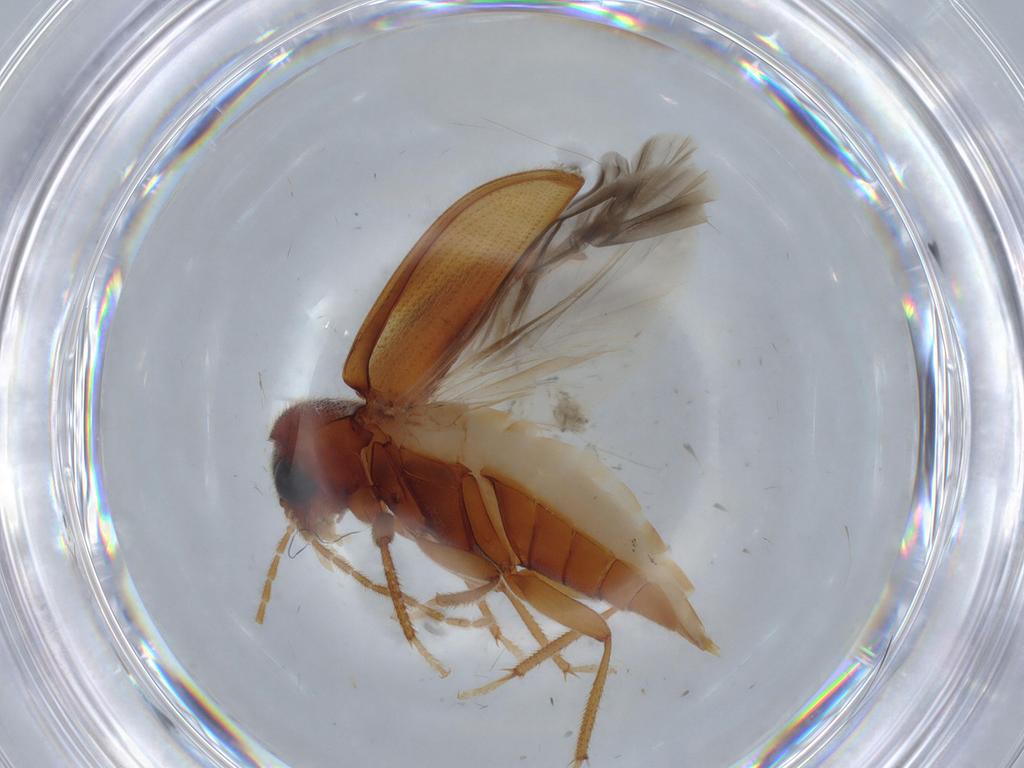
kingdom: Animalia
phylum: Arthropoda
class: Insecta
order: Coleoptera
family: Ptilodactylidae
